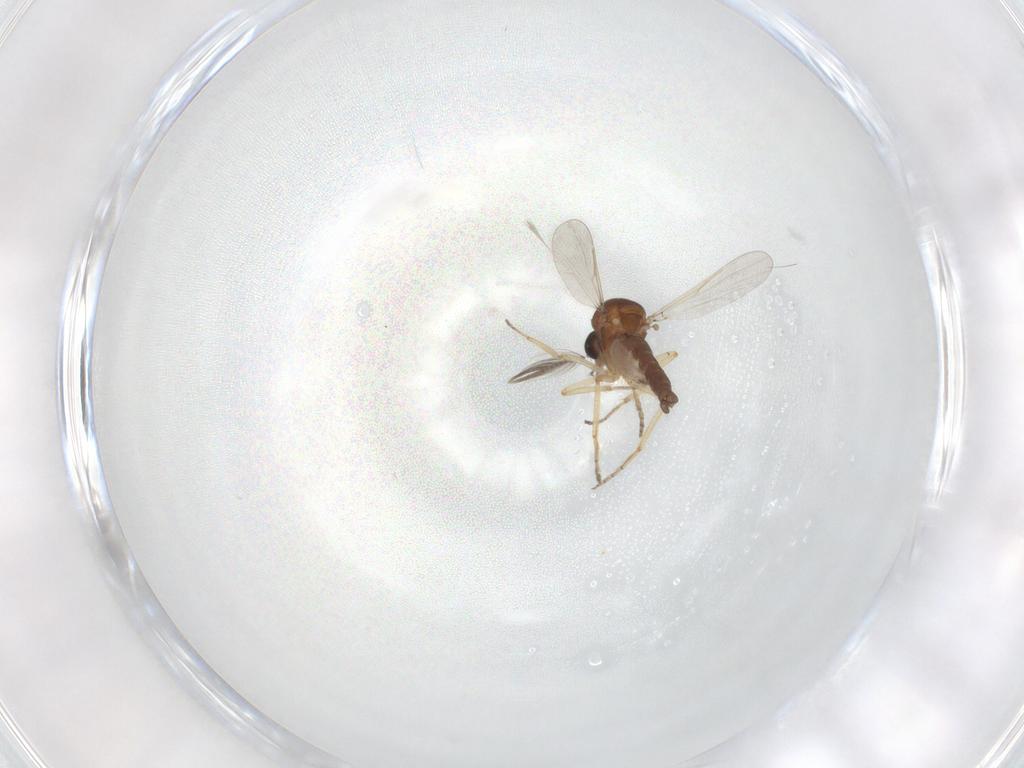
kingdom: Animalia
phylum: Arthropoda
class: Insecta
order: Diptera
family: Ceratopogonidae
